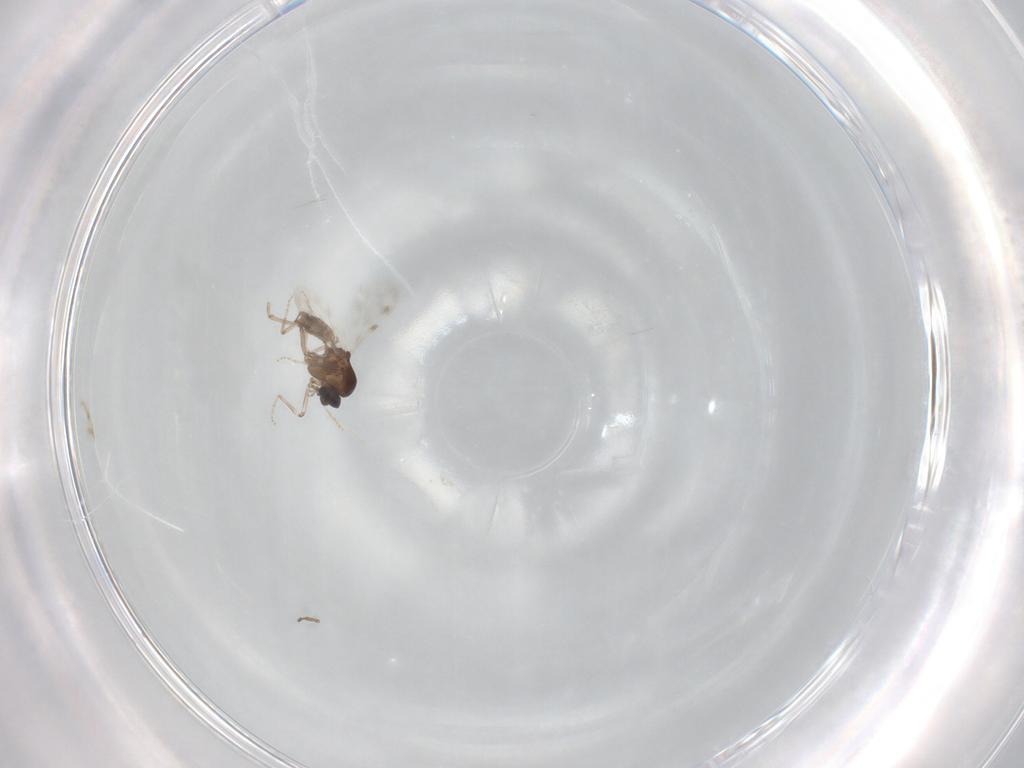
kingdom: Animalia
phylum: Arthropoda
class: Insecta
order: Diptera
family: Ceratopogonidae
